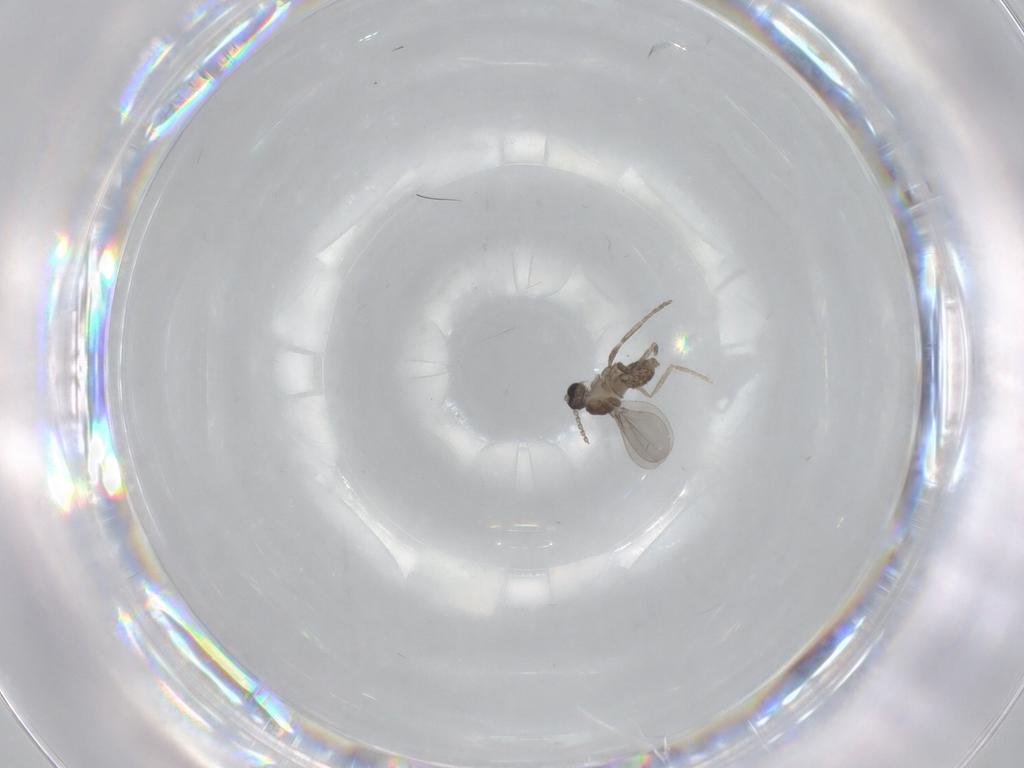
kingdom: Animalia
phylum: Arthropoda
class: Insecta
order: Diptera
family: Cecidomyiidae
